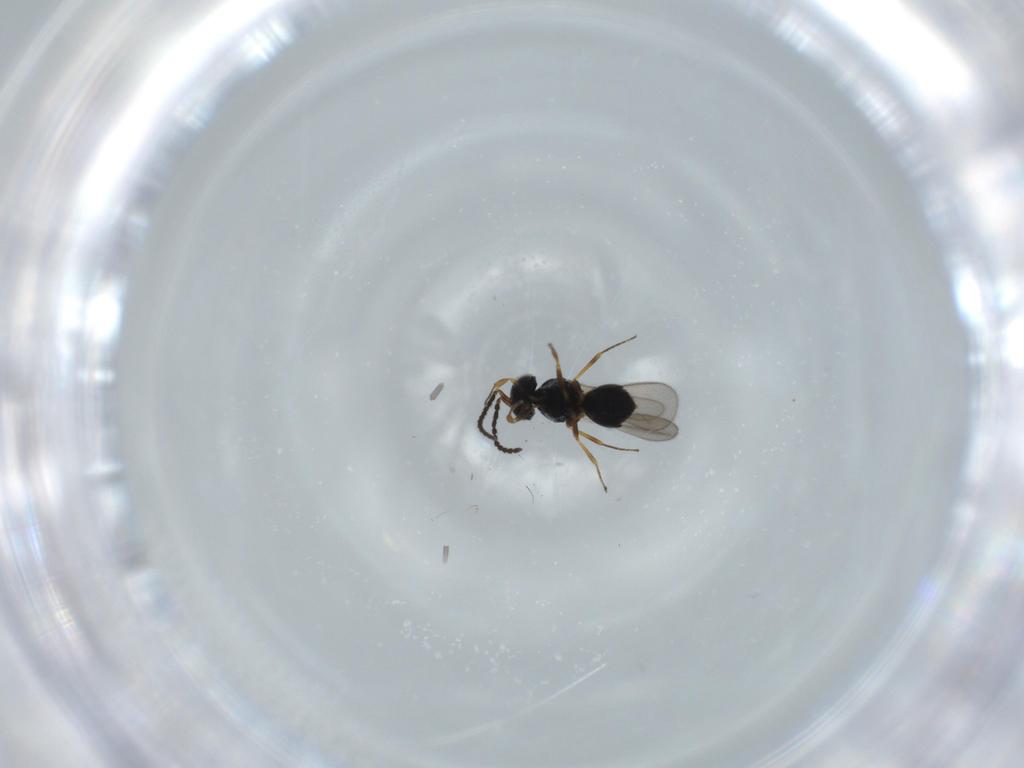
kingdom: Animalia
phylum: Arthropoda
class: Insecta
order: Hymenoptera
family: Scelionidae
